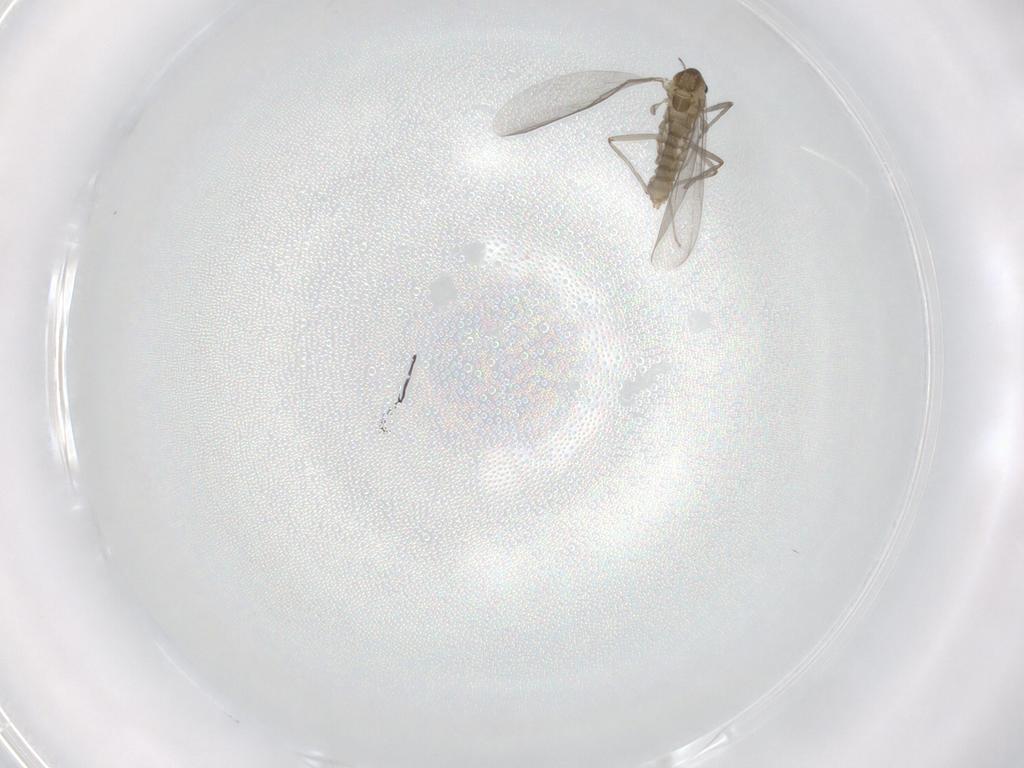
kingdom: Animalia
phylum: Arthropoda
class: Insecta
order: Diptera
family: Chironomidae
